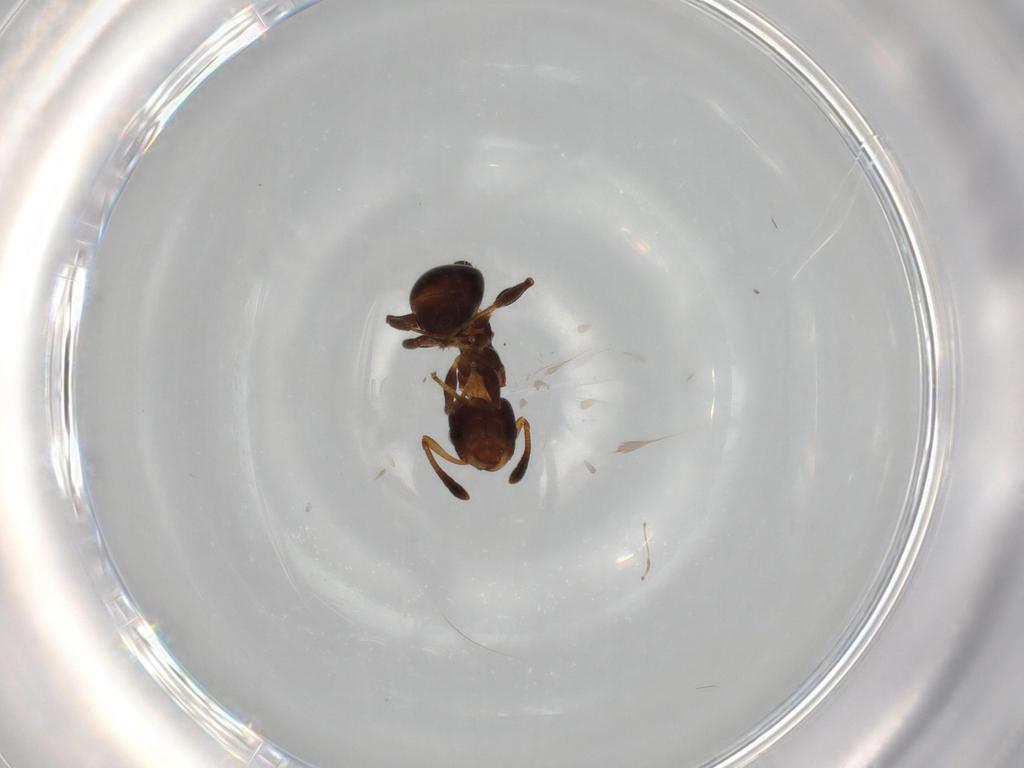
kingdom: Animalia
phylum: Arthropoda
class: Insecta
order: Hymenoptera
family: Formicidae
